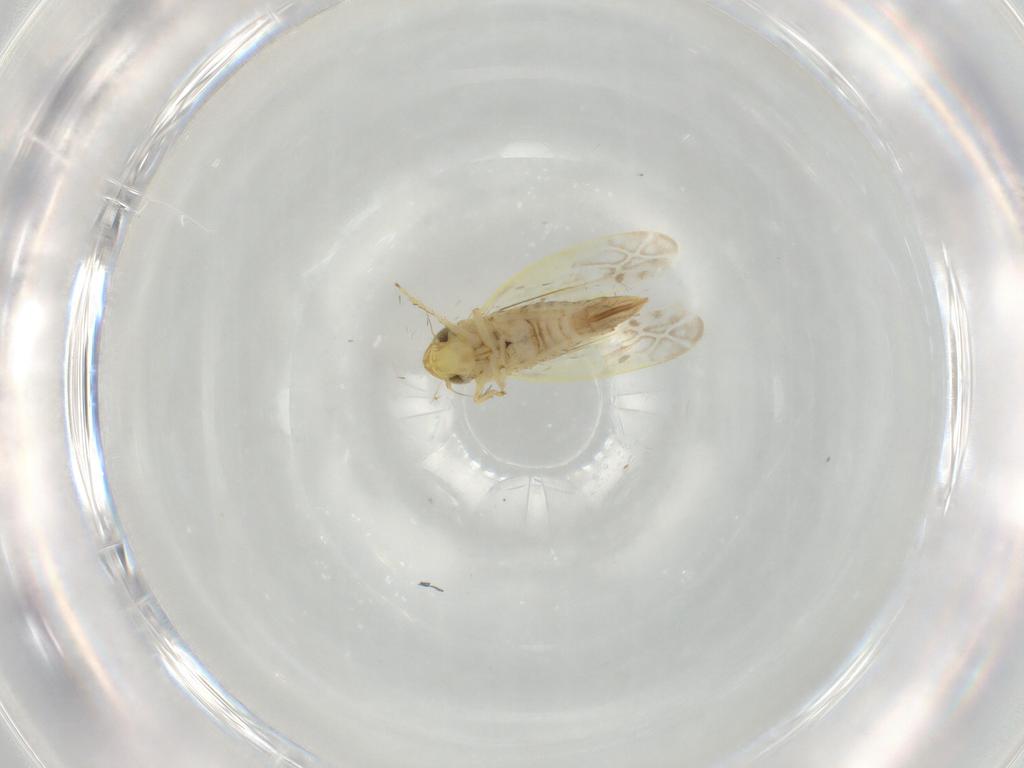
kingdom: Animalia
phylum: Arthropoda
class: Insecta
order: Hemiptera
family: Cicadellidae
